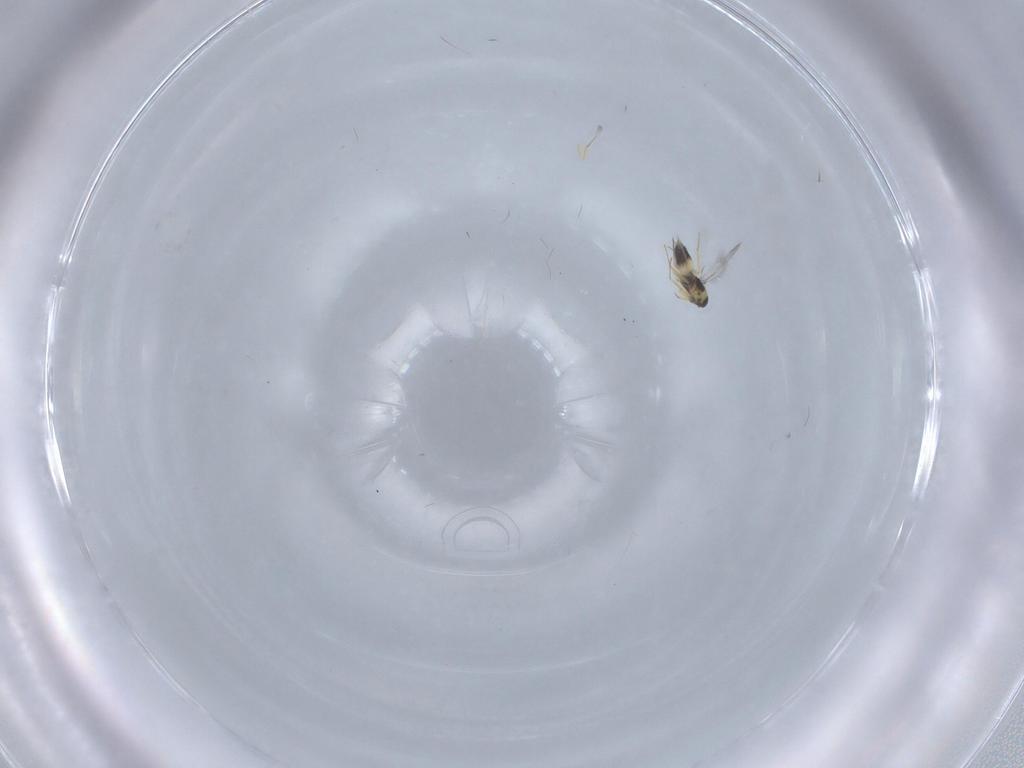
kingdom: Animalia
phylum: Arthropoda
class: Insecta
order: Hymenoptera
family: Mymaridae
